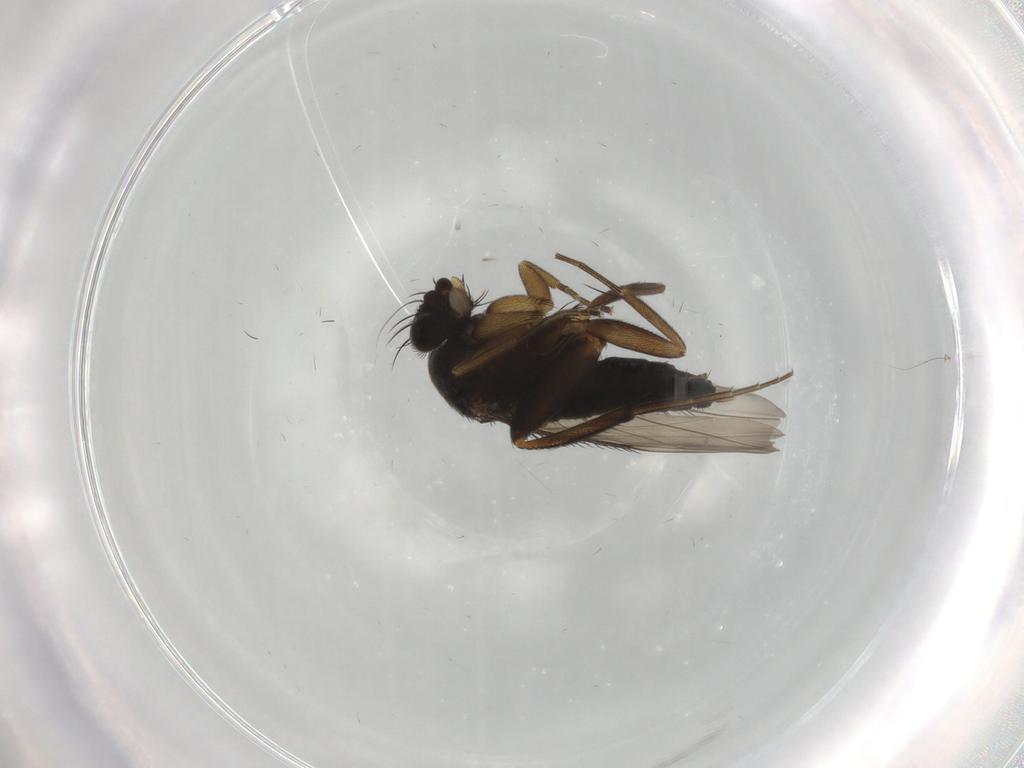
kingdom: Animalia
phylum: Arthropoda
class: Insecta
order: Diptera
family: Phoridae
